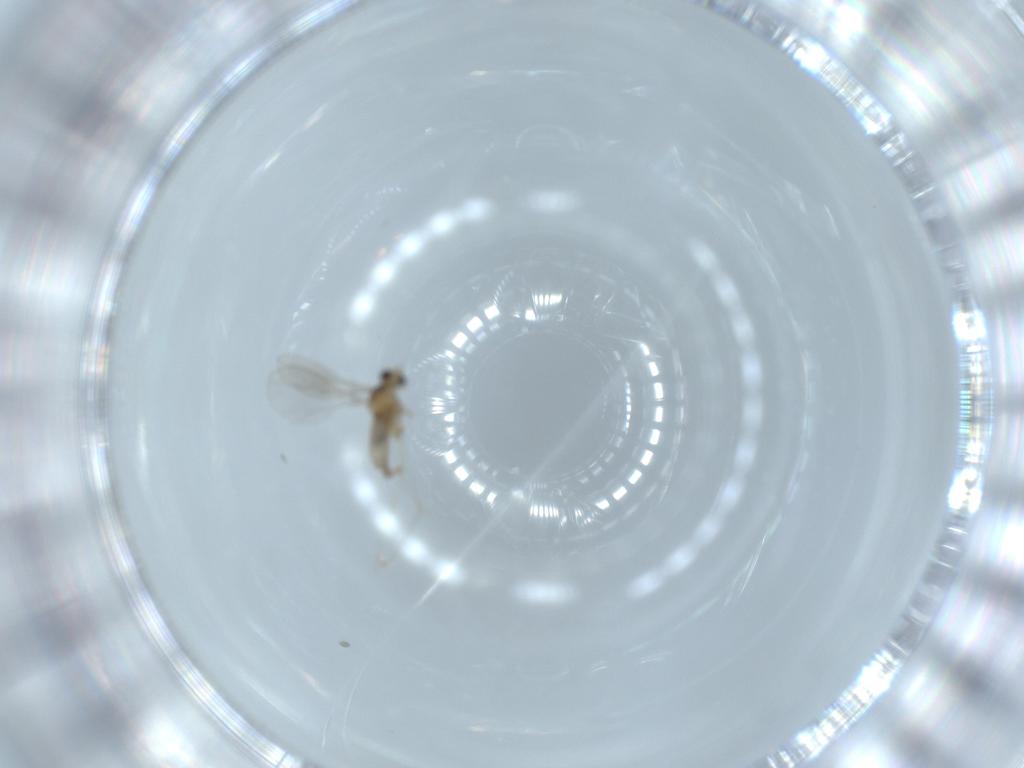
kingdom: Animalia
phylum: Arthropoda
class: Insecta
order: Diptera
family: Cecidomyiidae
